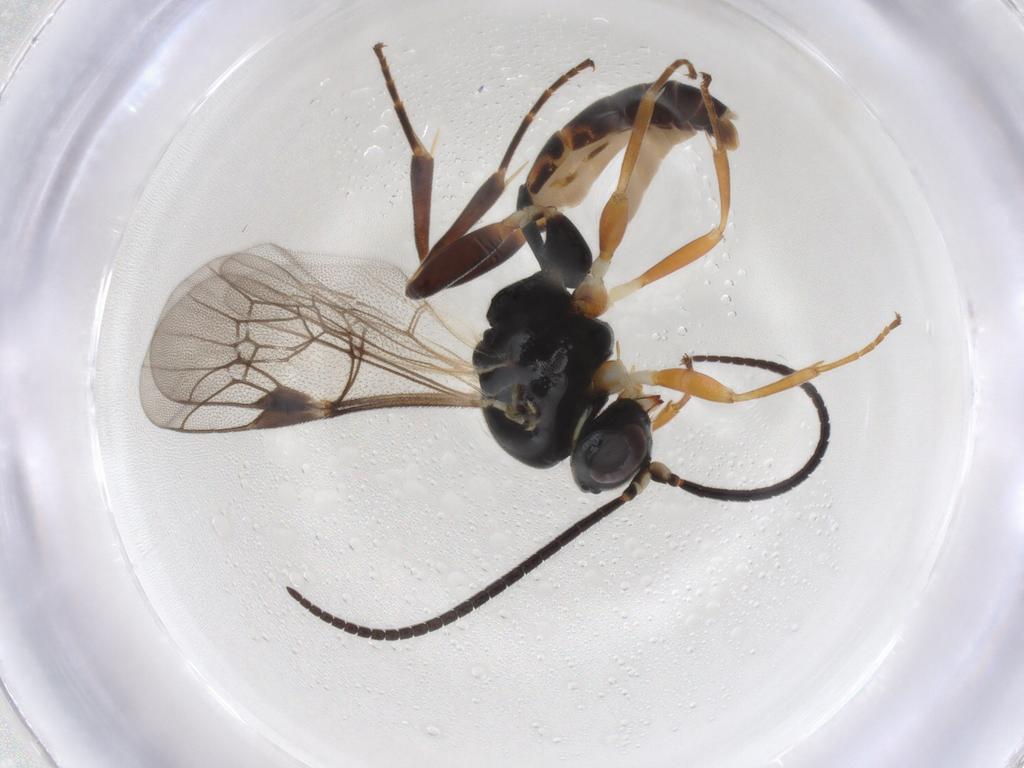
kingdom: Animalia
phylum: Arthropoda
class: Insecta
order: Hymenoptera
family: Ichneumonidae
